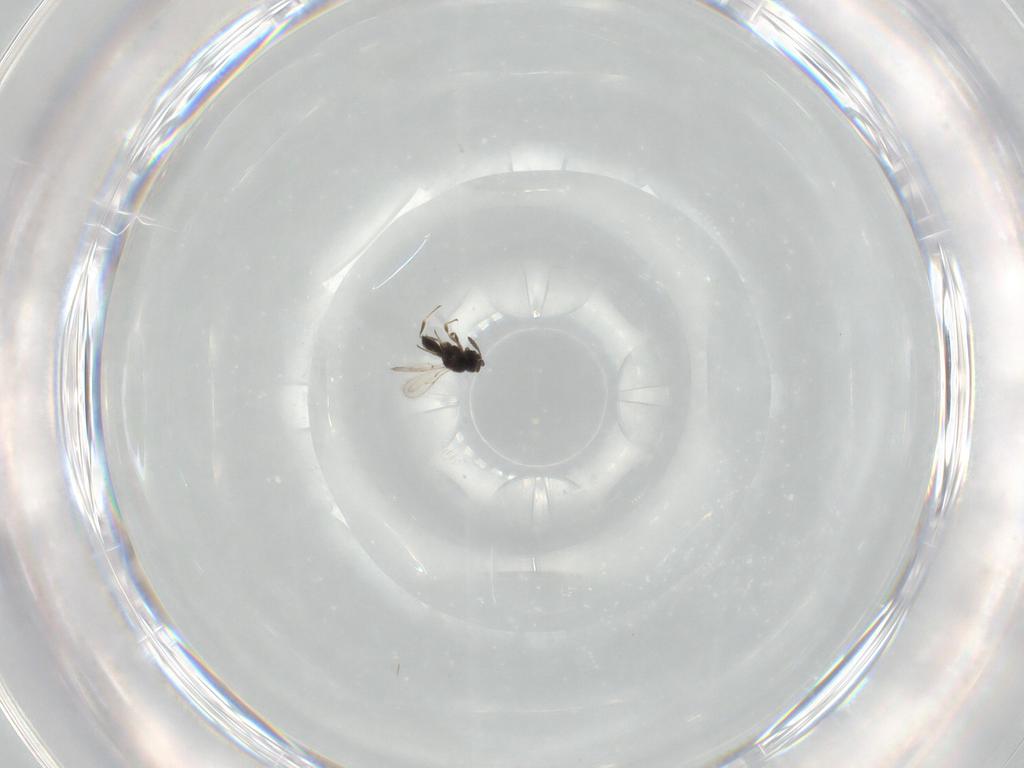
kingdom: Animalia
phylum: Arthropoda
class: Insecta
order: Hymenoptera
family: Scelionidae
